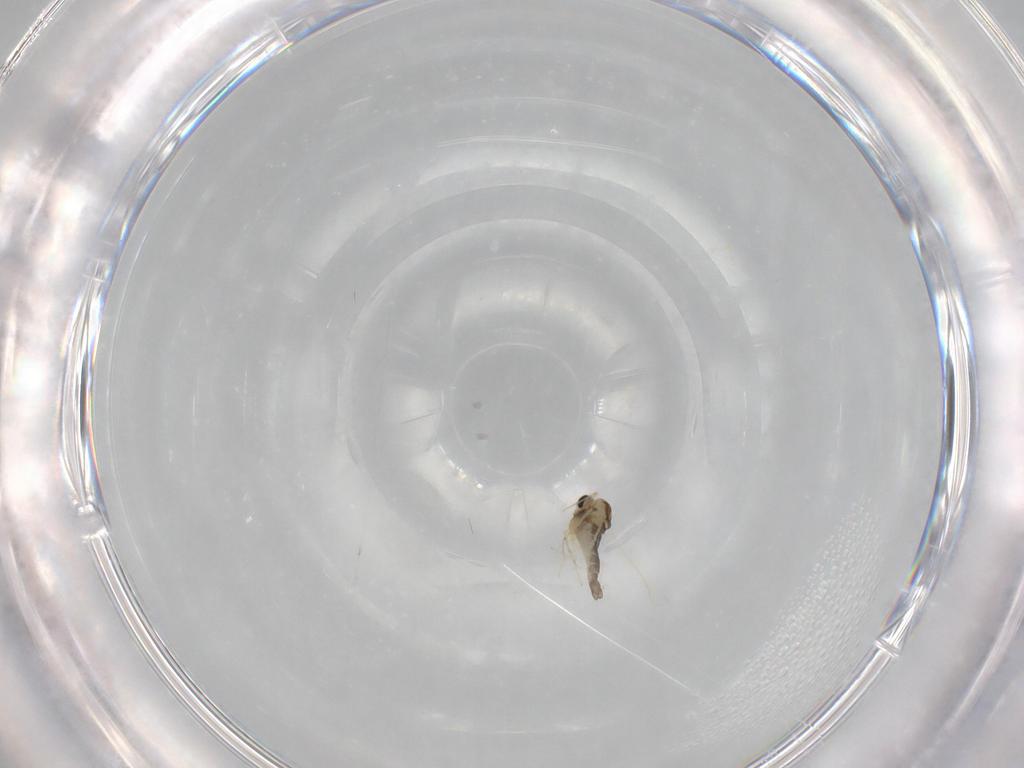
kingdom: Animalia
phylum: Arthropoda
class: Insecta
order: Diptera
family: Chironomidae
